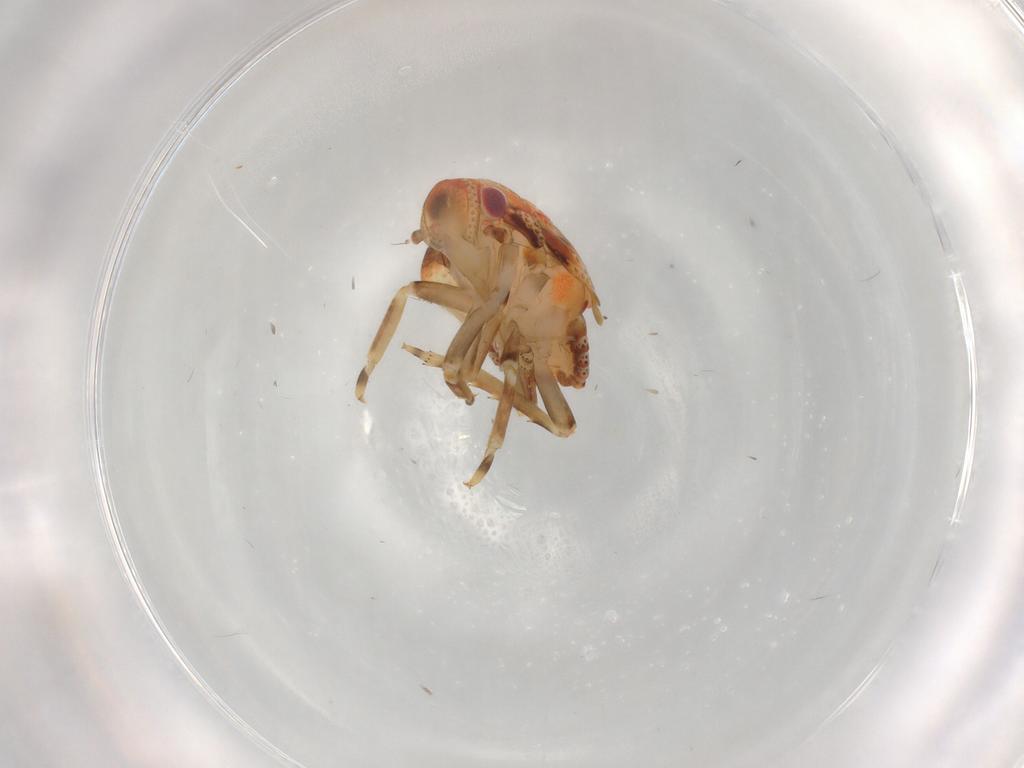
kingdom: Animalia
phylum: Arthropoda
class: Insecta
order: Hemiptera
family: Flatidae
